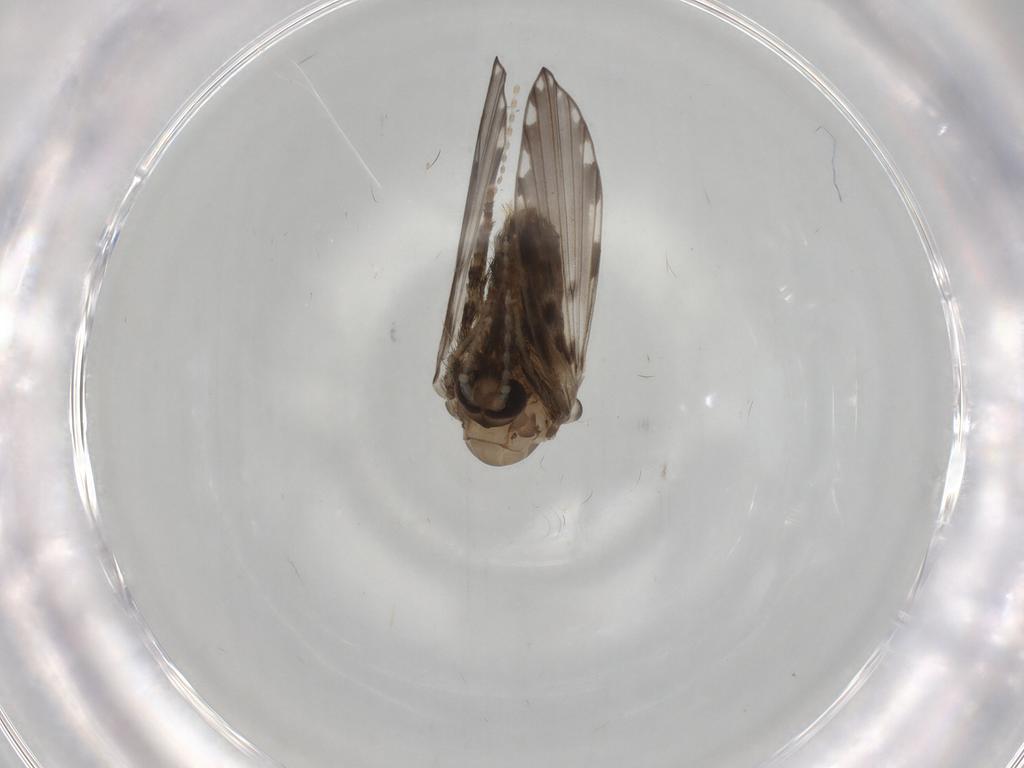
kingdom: Animalia
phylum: Arthropoda
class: Insecta
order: Diptera
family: Psychodidae
